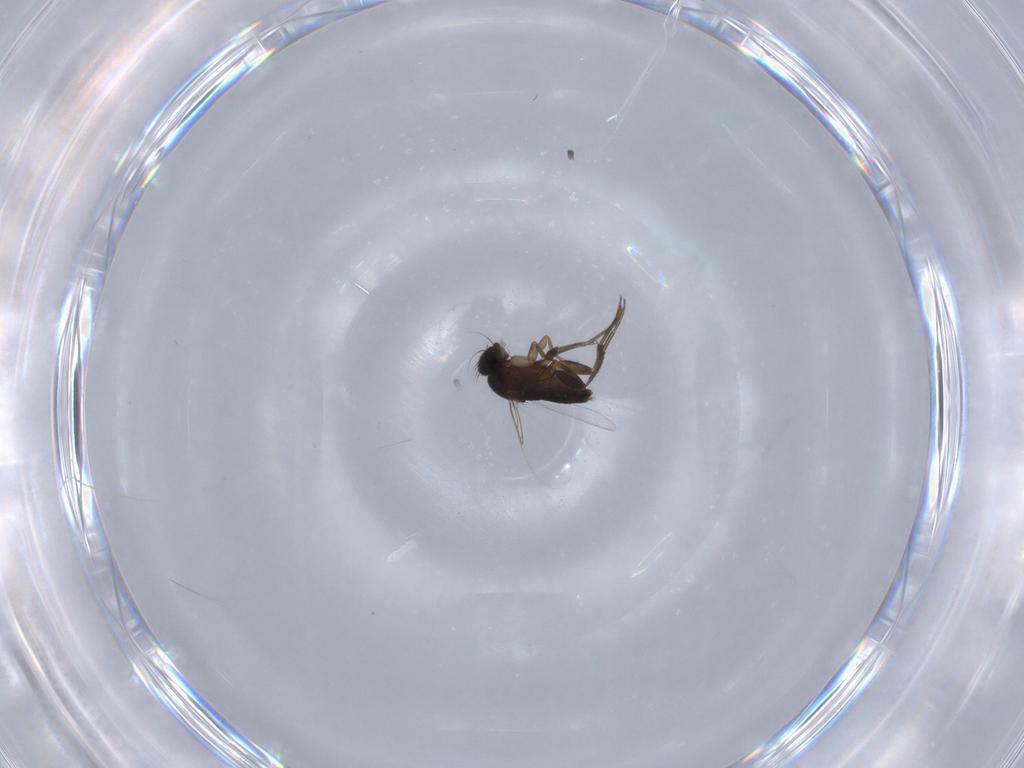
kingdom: Animalia
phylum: Arthropoda
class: Insecta
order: Diptera
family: Phoridae
